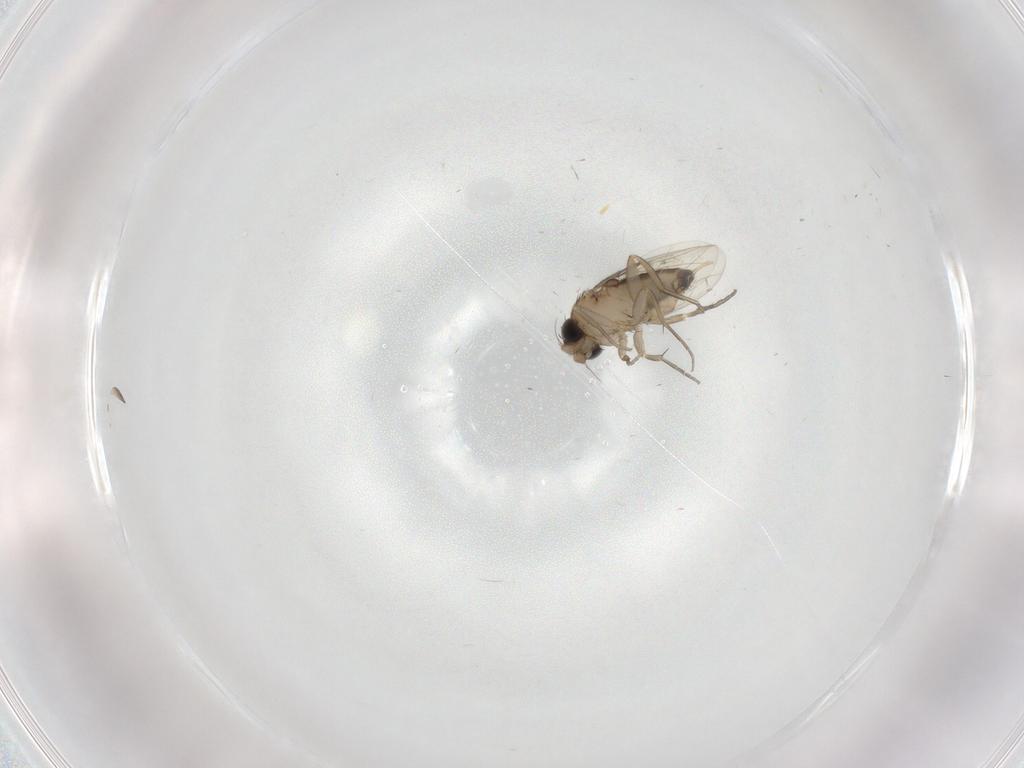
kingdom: Animalia
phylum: Arthropoda
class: Insecta
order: Diptera
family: Phoridae
